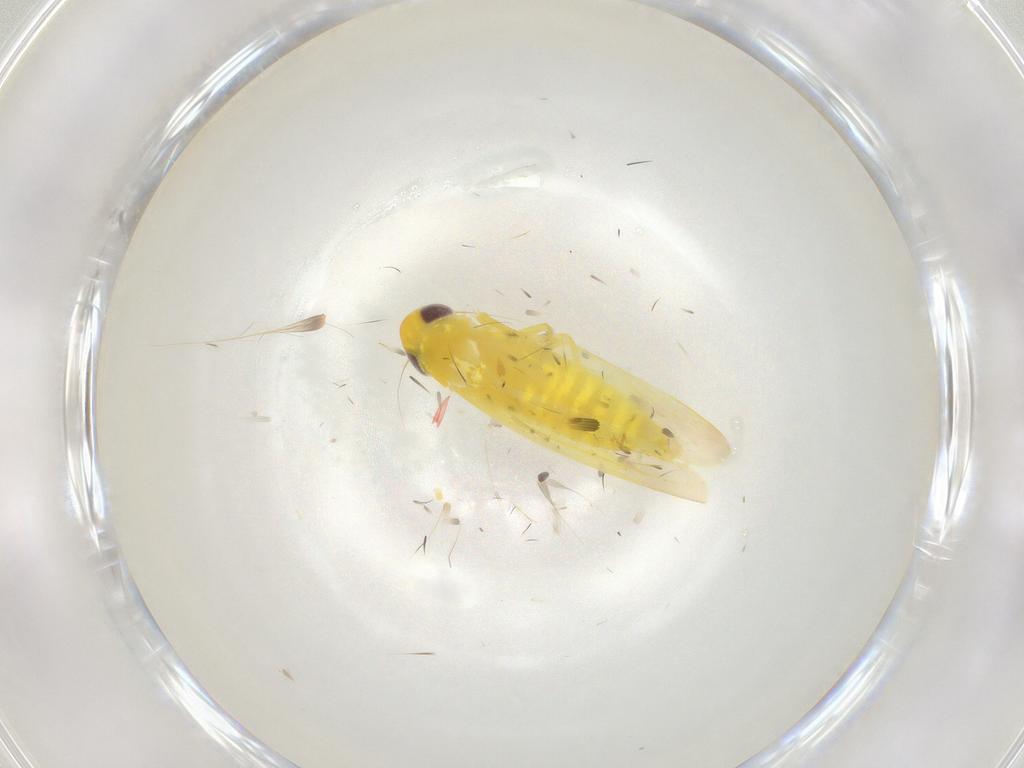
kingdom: Animalia
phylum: Arthropoda
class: Insecta
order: Hemiptera
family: Cicadellidae
